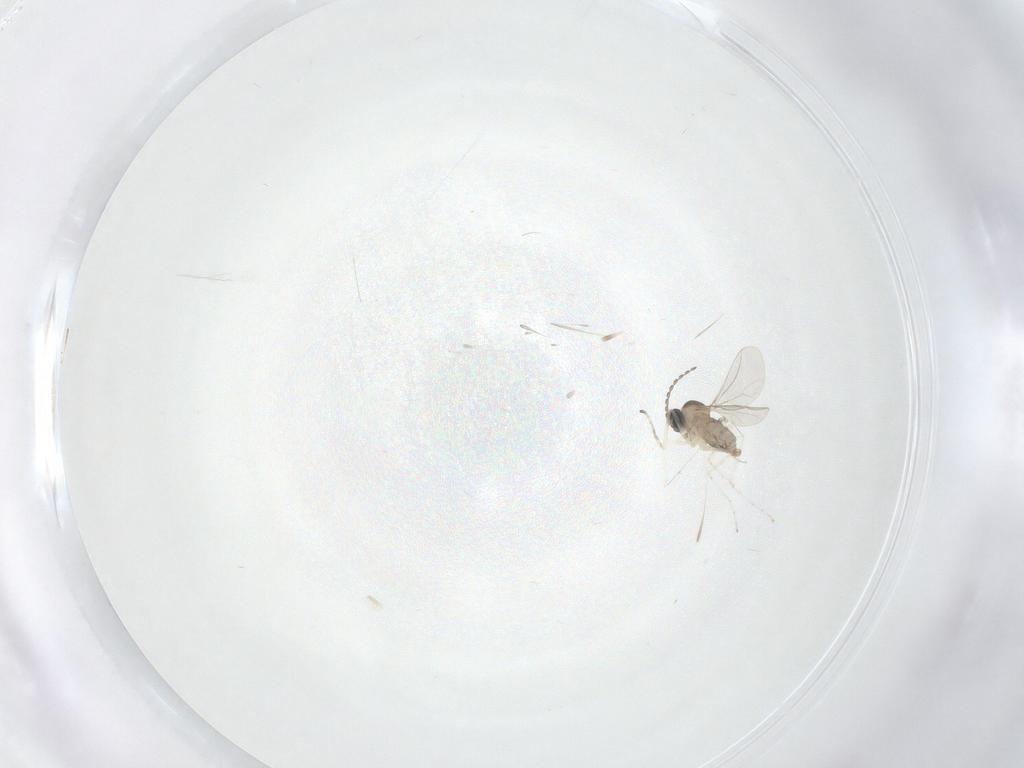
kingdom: Animalia
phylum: Arthropoda
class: Insecta
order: Diptera
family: Cecidomyiidae
